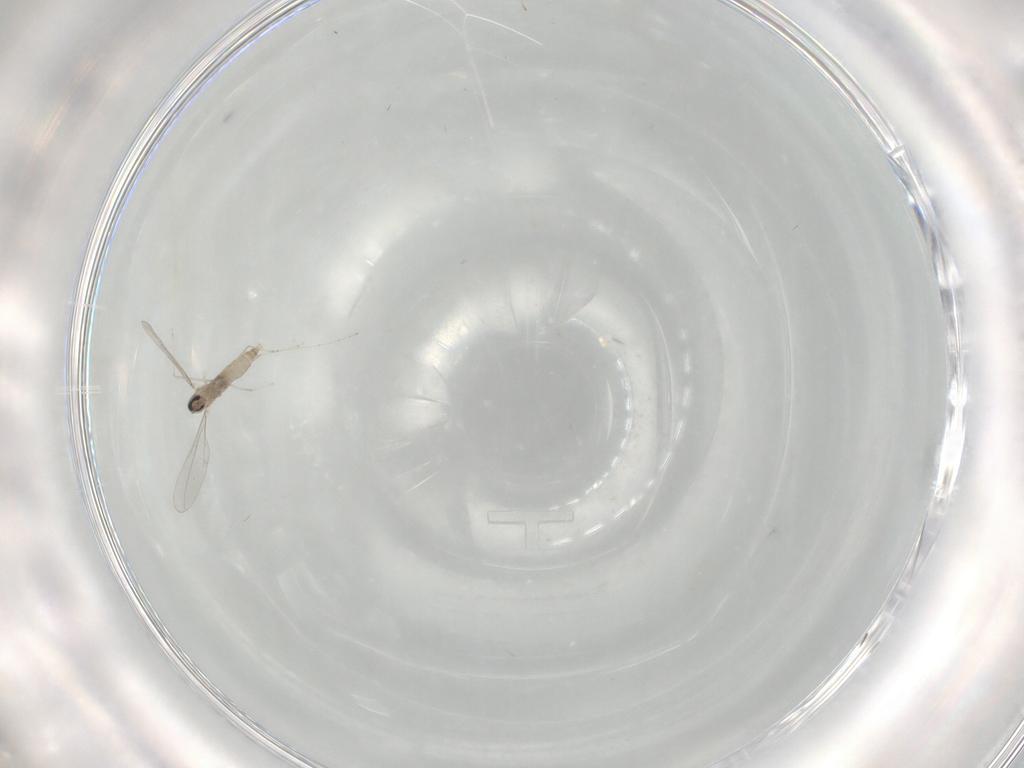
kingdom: Animalia
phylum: Arthropoda
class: Insecta
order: Diptera
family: Cecidomyiidae
